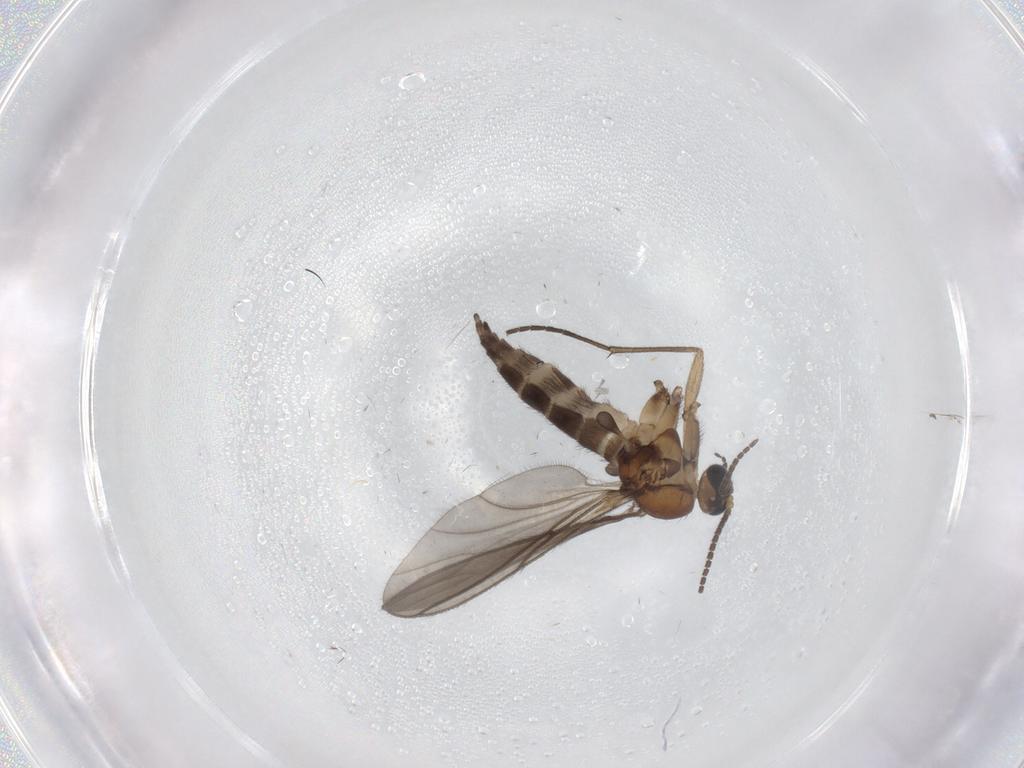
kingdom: Animalia
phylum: Arthropoda
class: Insecta
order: Diptera
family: Sciaridae
